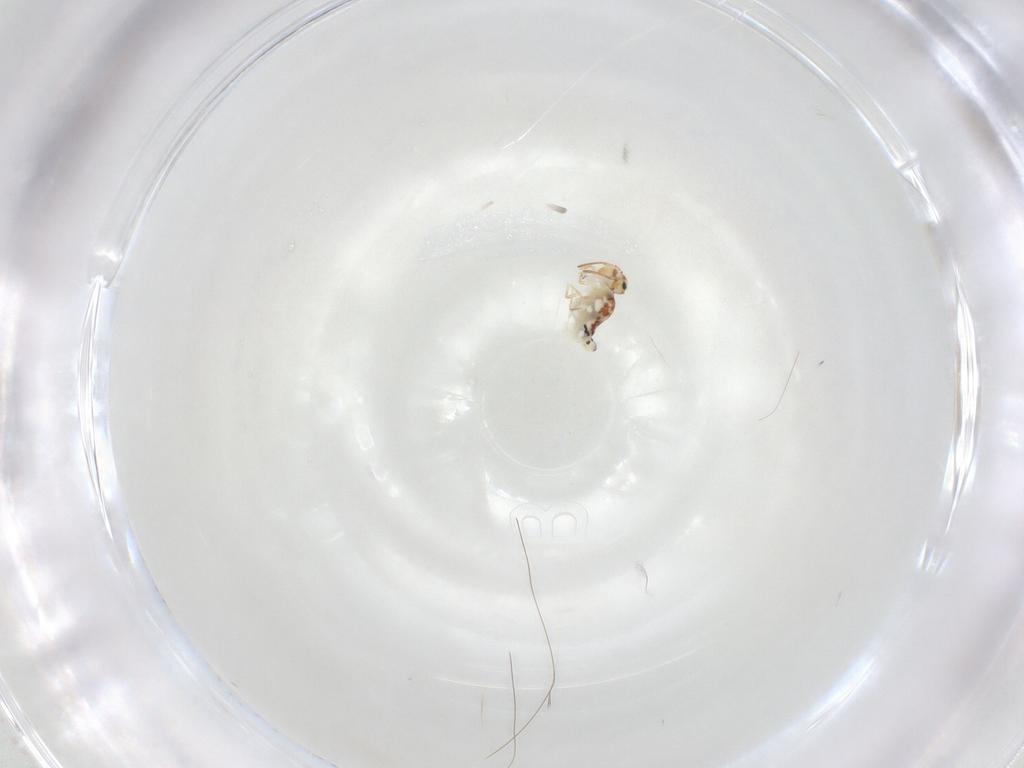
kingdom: Animalia
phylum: Arthropoda
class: Collembola
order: Symphypleona
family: Bourletiellidae
